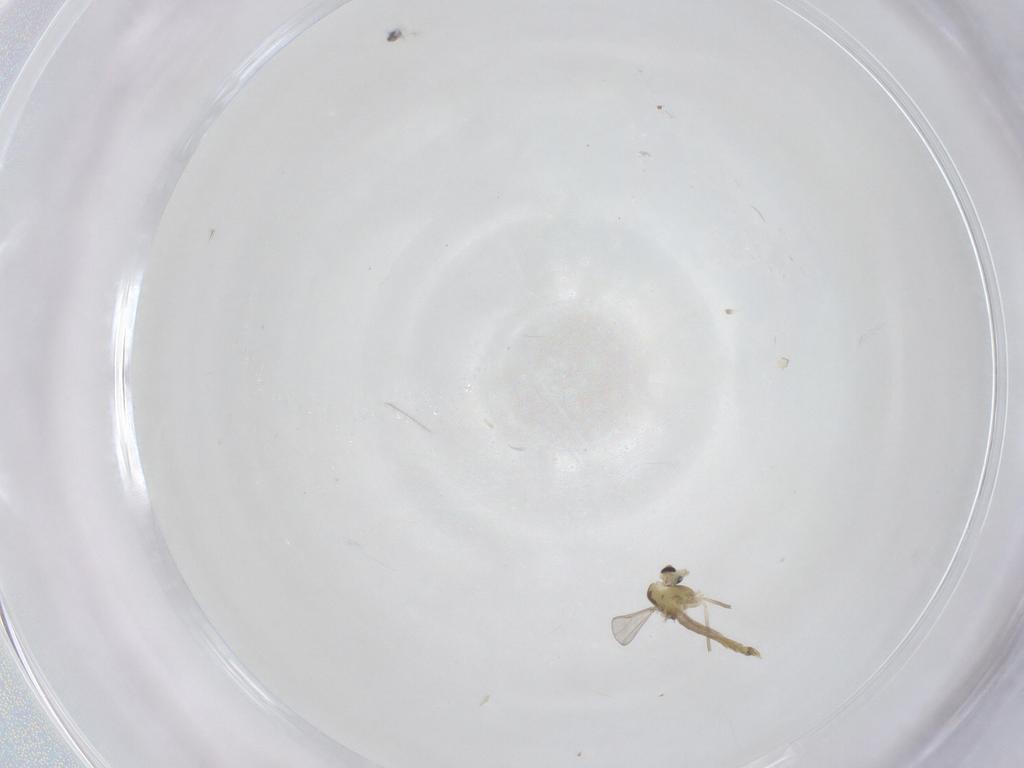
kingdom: Animalia
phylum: Arthropoda
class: Insecta
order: Diptera
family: Chironomidae
